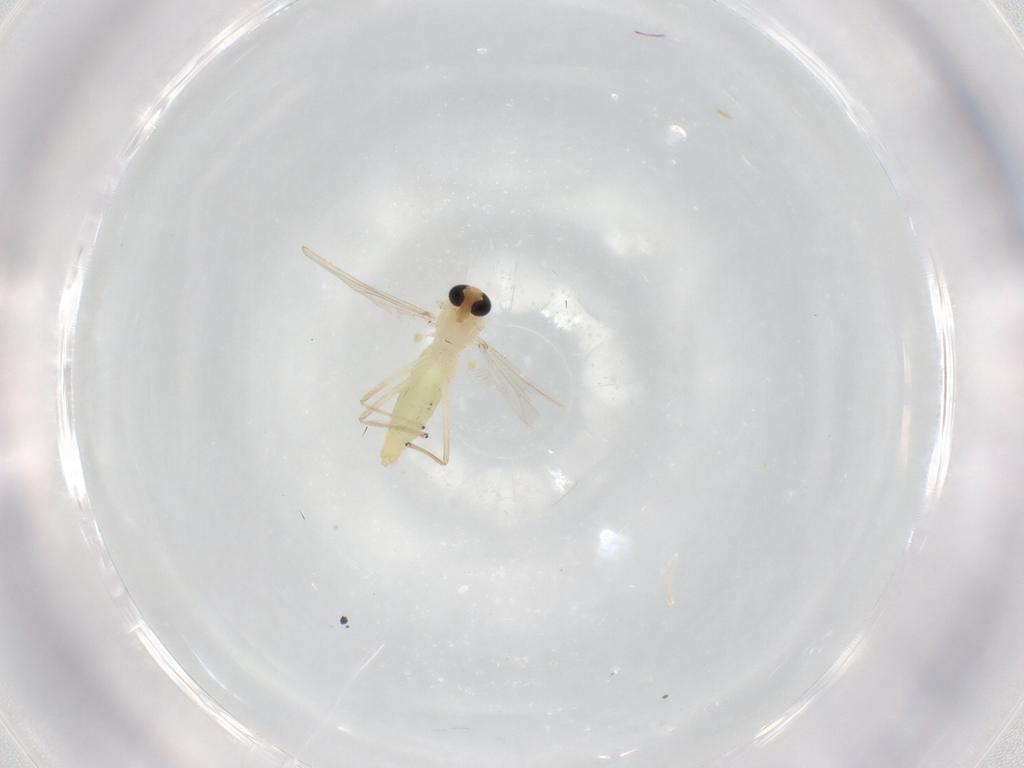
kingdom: Animalia
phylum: Arthropoda
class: Insecta
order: Diptera
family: Chironomidae
